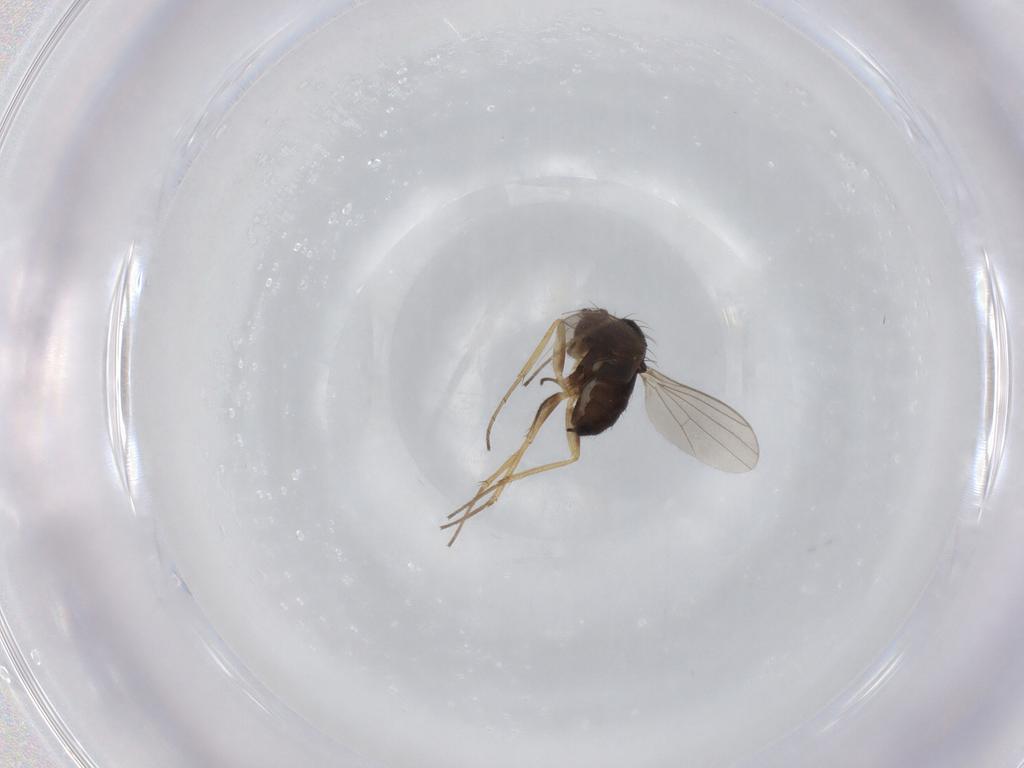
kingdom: Animalia
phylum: Arthropoda
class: Insecta
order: Diptera
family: Dolichopodidae
